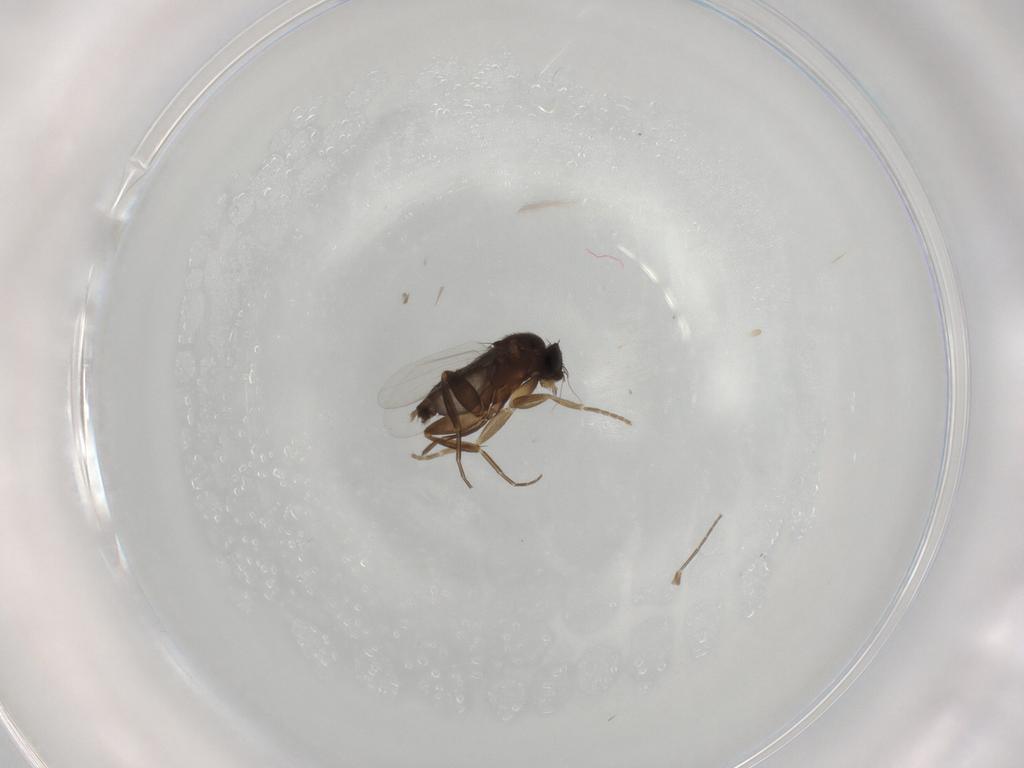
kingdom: Animalia
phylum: Arthropoda
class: Insecta
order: Diptera
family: Phoridae
